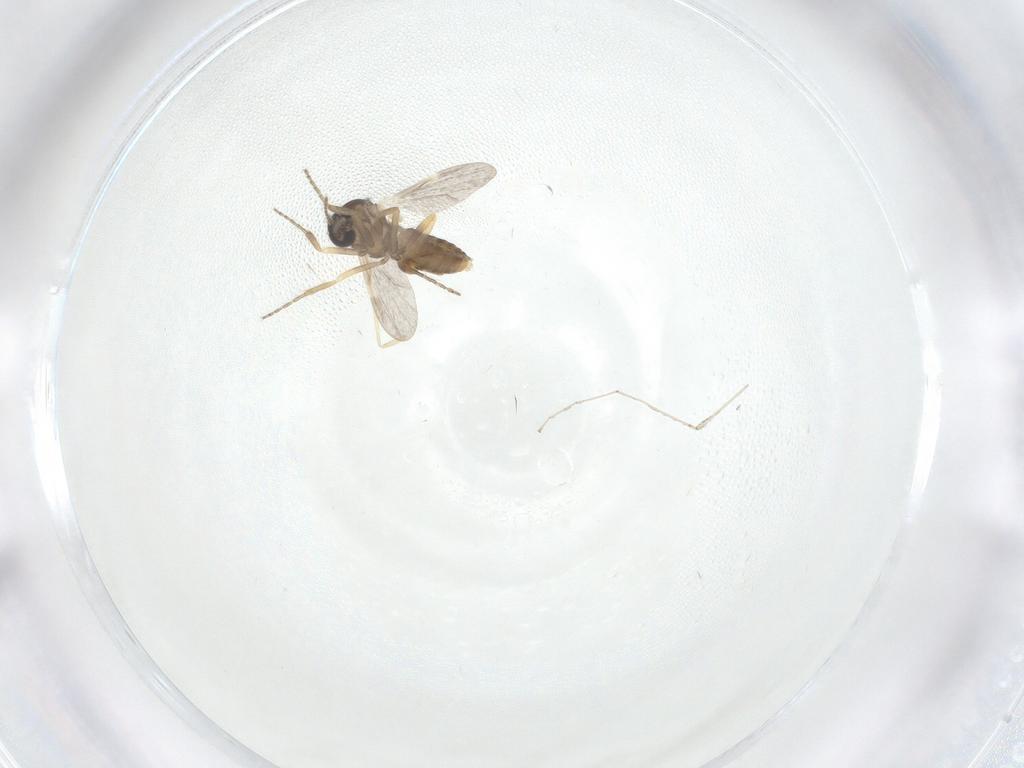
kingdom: Animalia
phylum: Arthropoda
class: Insecta
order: Diptera
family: Ceratopogonidae
